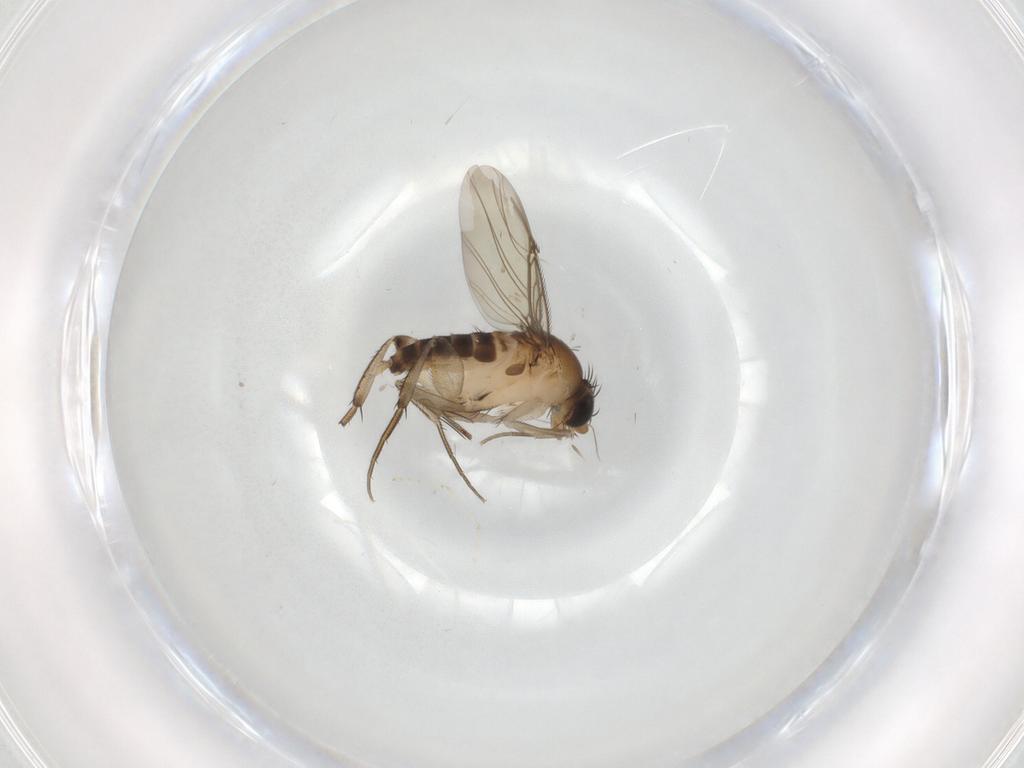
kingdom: Animalia
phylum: Arthropoda
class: Insecta
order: Diptera
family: Phoridae
